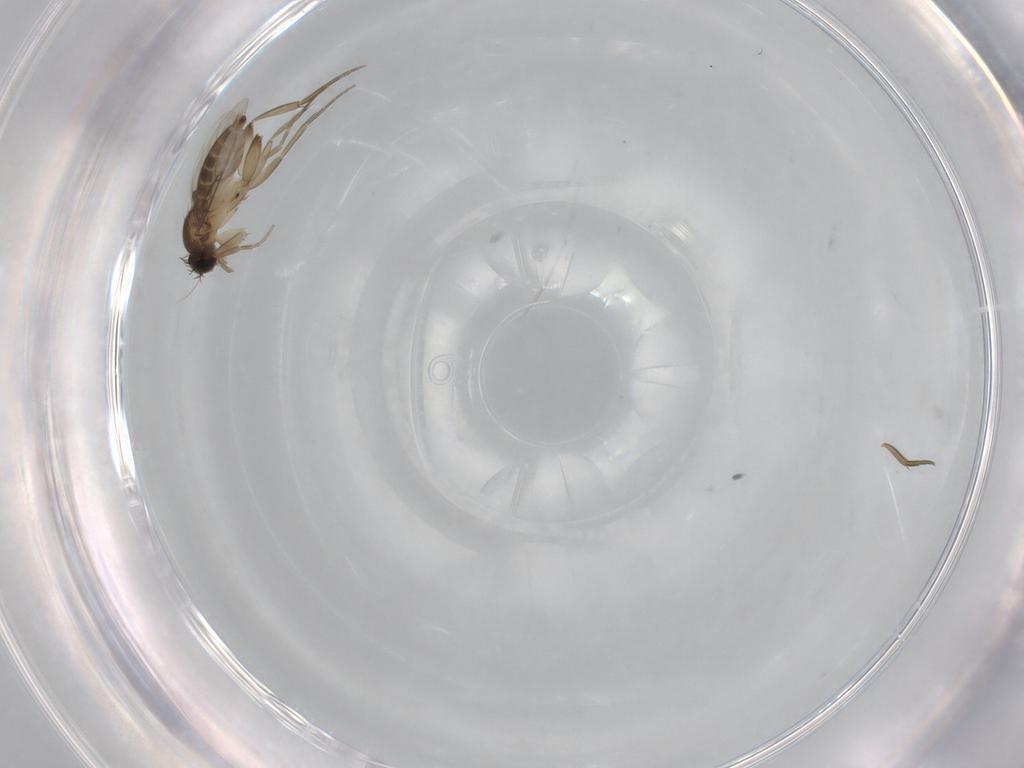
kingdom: Animalia
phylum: Arthropoda
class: Insecta
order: Diptera
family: Phoridae
